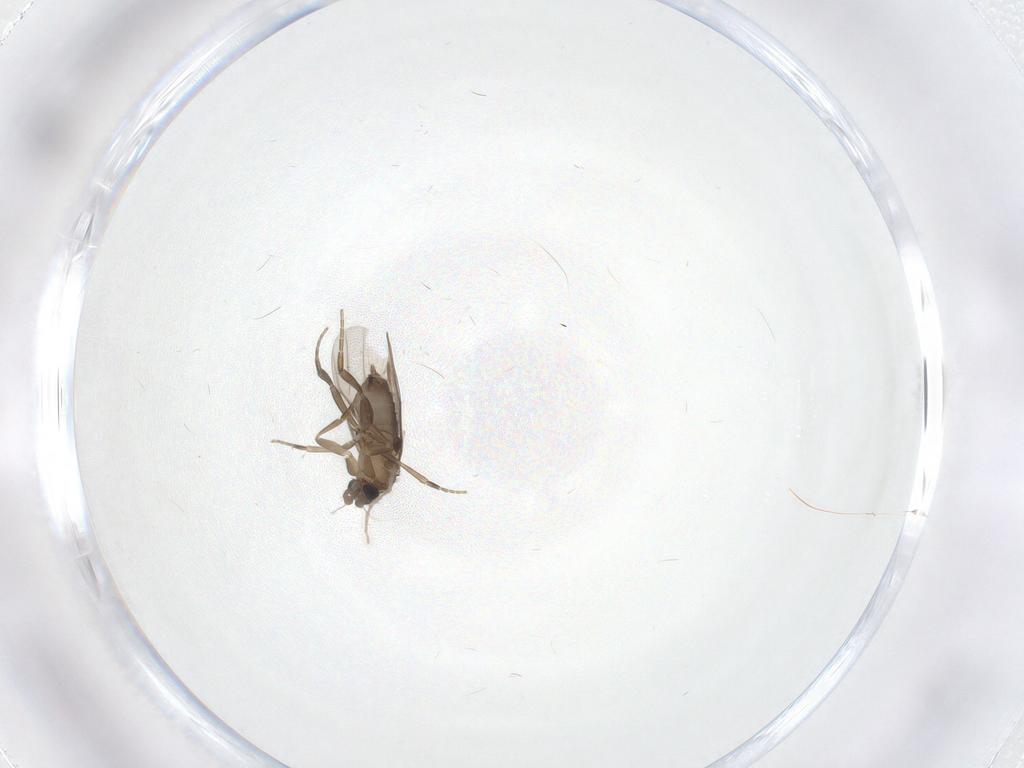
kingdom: Animalia
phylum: Arthropoda
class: Insecta
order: Diptera
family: Phoridae
